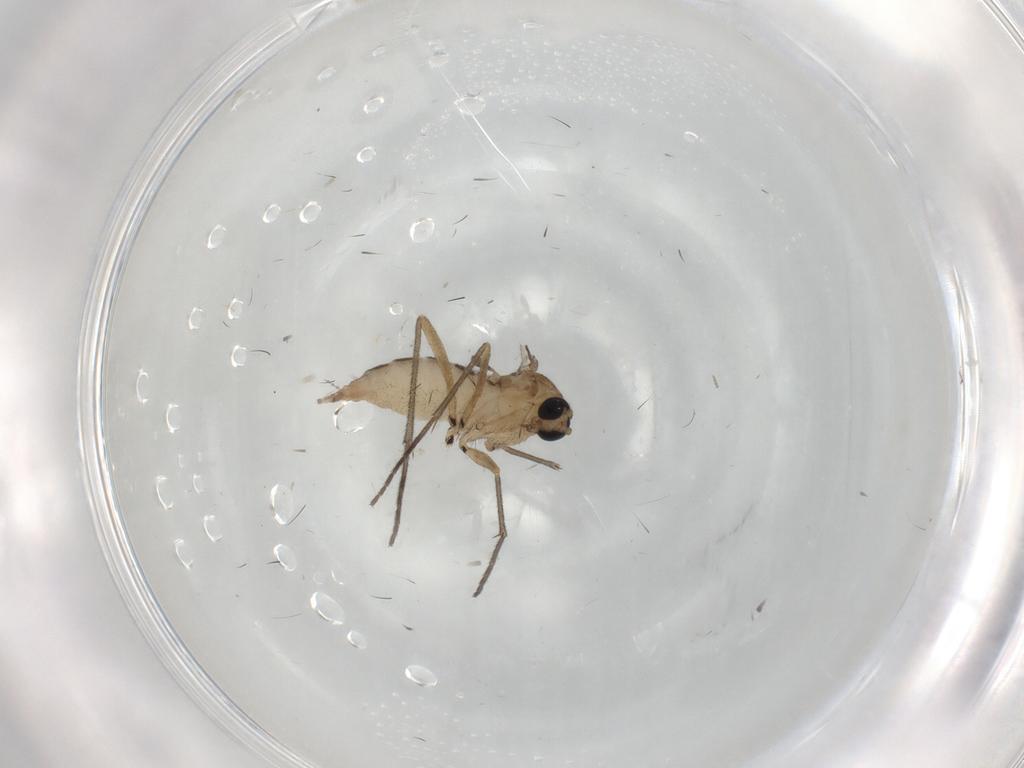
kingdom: Animalia
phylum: Arthropoda
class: Insecta
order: Diptera
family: Sciaridae
